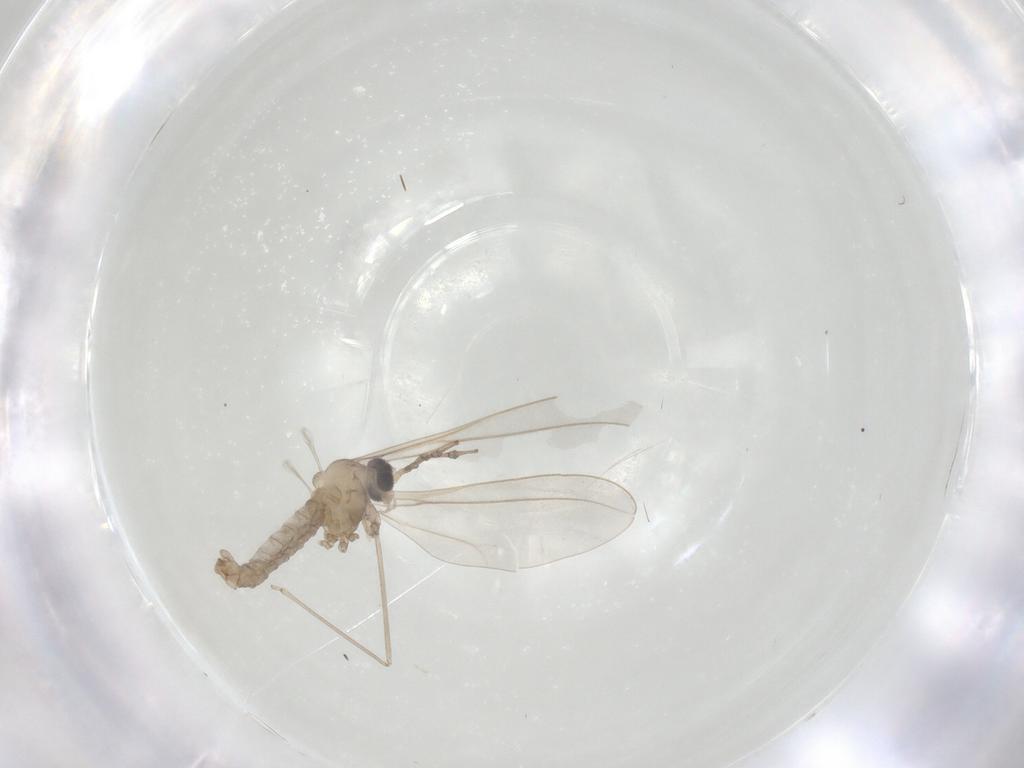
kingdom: Animalia
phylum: Arthropoda
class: Insecta
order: Diptera
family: Cecidomyiidae
